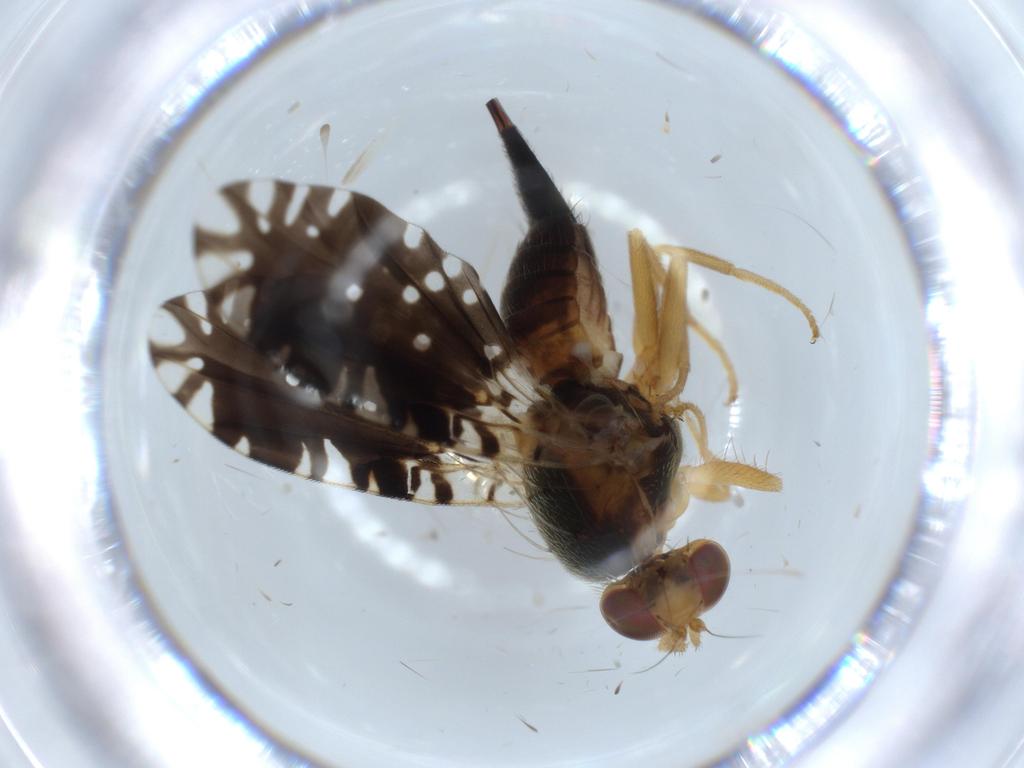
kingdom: Animalia
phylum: Arthropoda
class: Insecta
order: Diptera
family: Tephritidae
